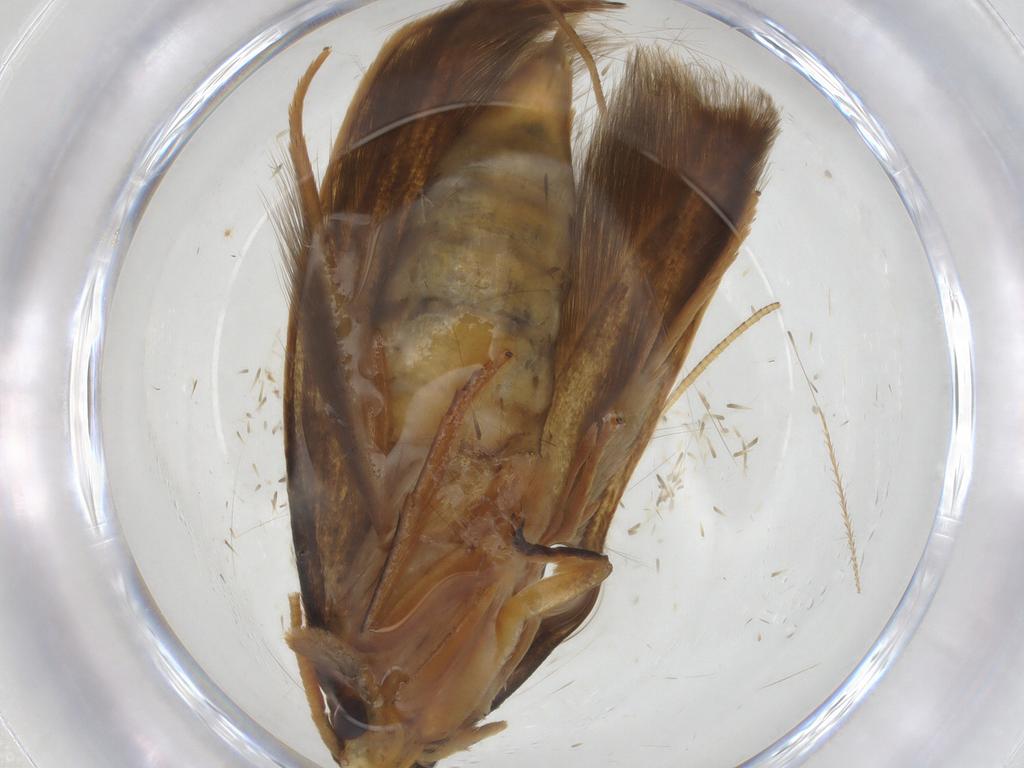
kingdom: Animalia
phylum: Arthropoda
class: Insecta
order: Lepidoptera
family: Tineidae
